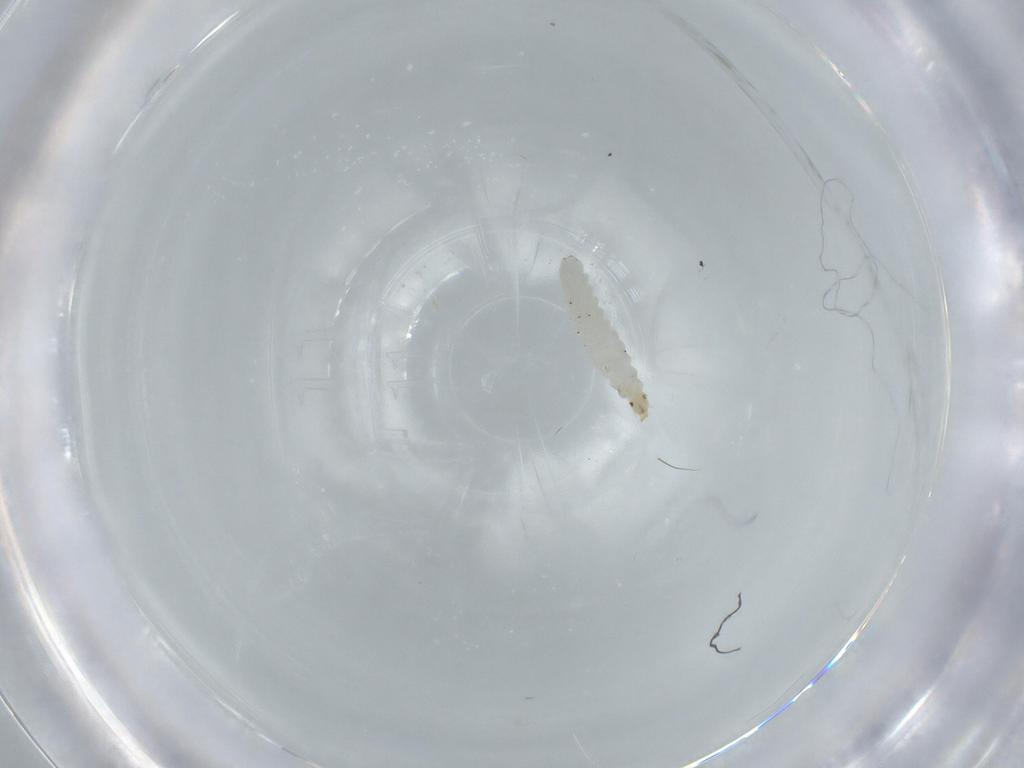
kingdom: Animalia
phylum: Arthropoda
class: Insecta
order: Diptera
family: Stratiomyidae
